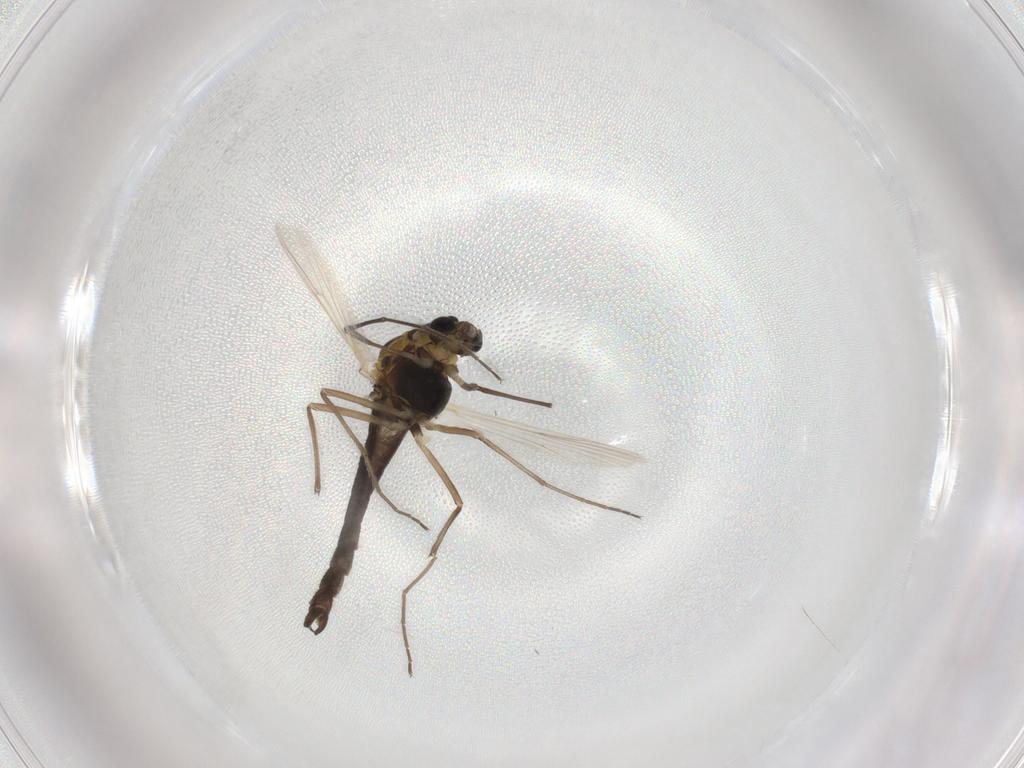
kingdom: Animalia
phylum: Arthropoda
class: Insecta
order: Diptera
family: Chironomidae
